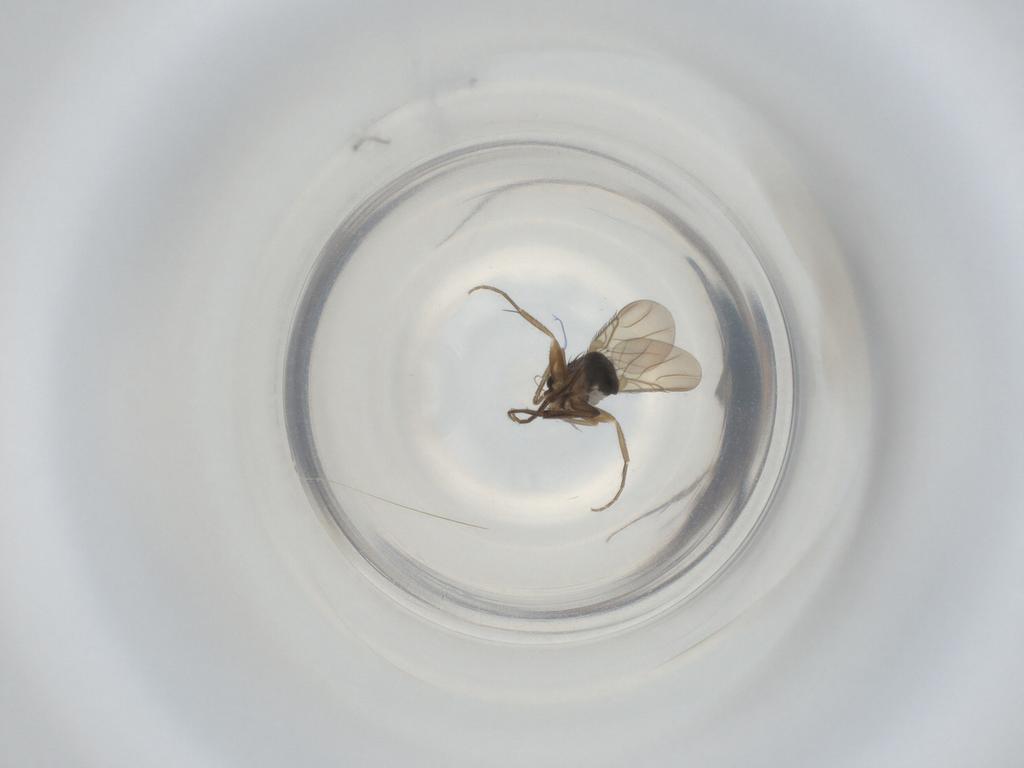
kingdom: Animalia
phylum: Arthropoda
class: Insecta
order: Diptera
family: Phoridae
